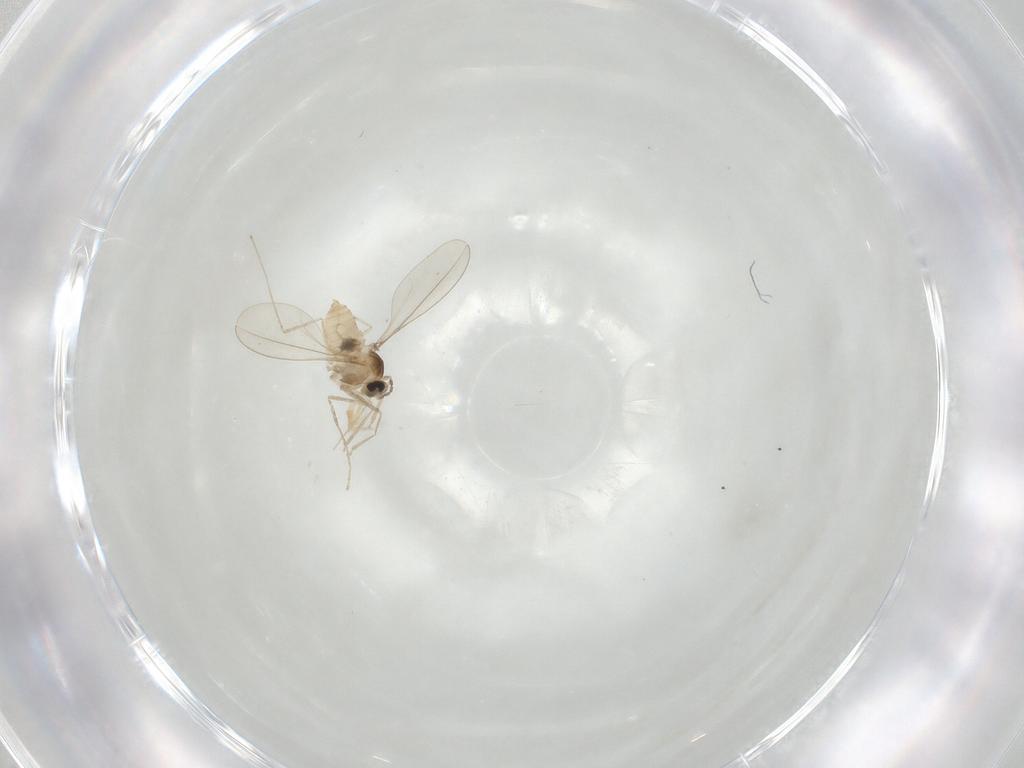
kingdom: Animalia
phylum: Arthropoda
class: Insecta
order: Diptera
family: Cecidomyiidae
